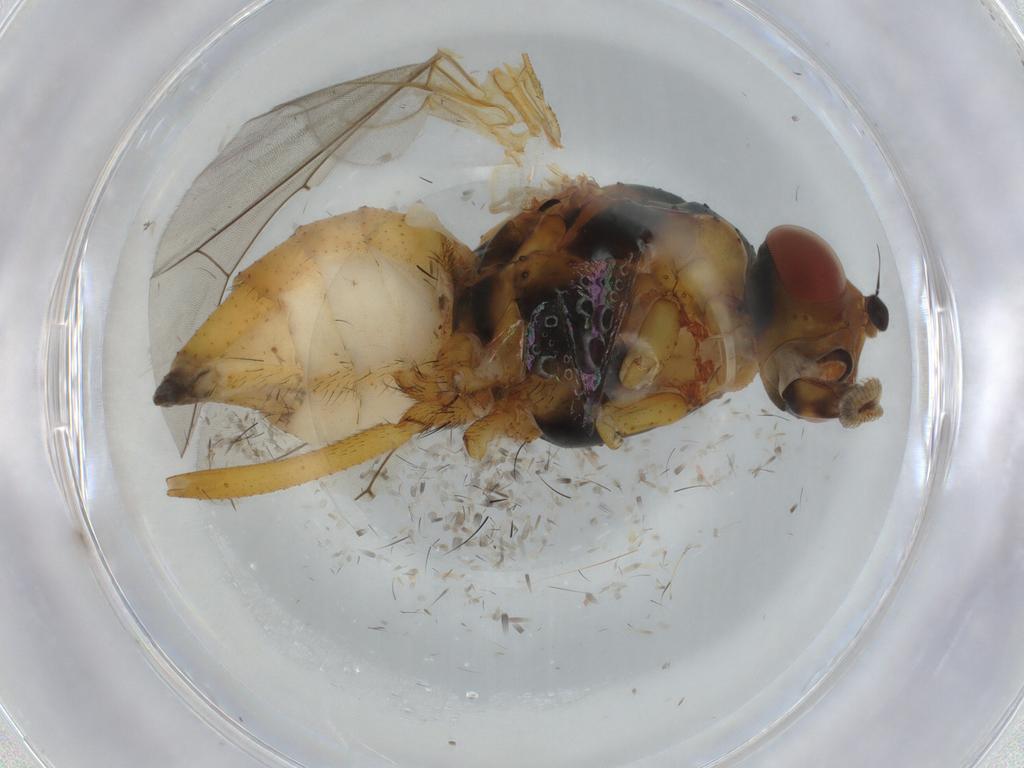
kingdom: Animalia
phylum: Arthropoda
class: Insecta
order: Diptera
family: Anthomyiidae
